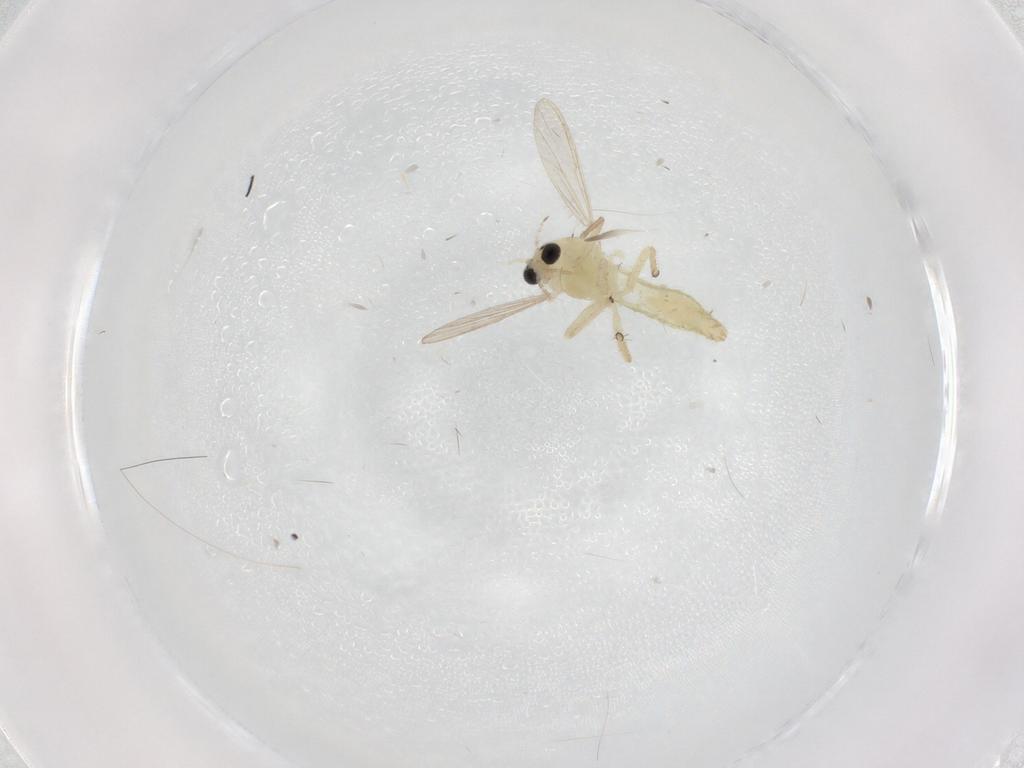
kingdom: Animalia
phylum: Arthropoda
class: Insecta
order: Diptera
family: Chironomidae
